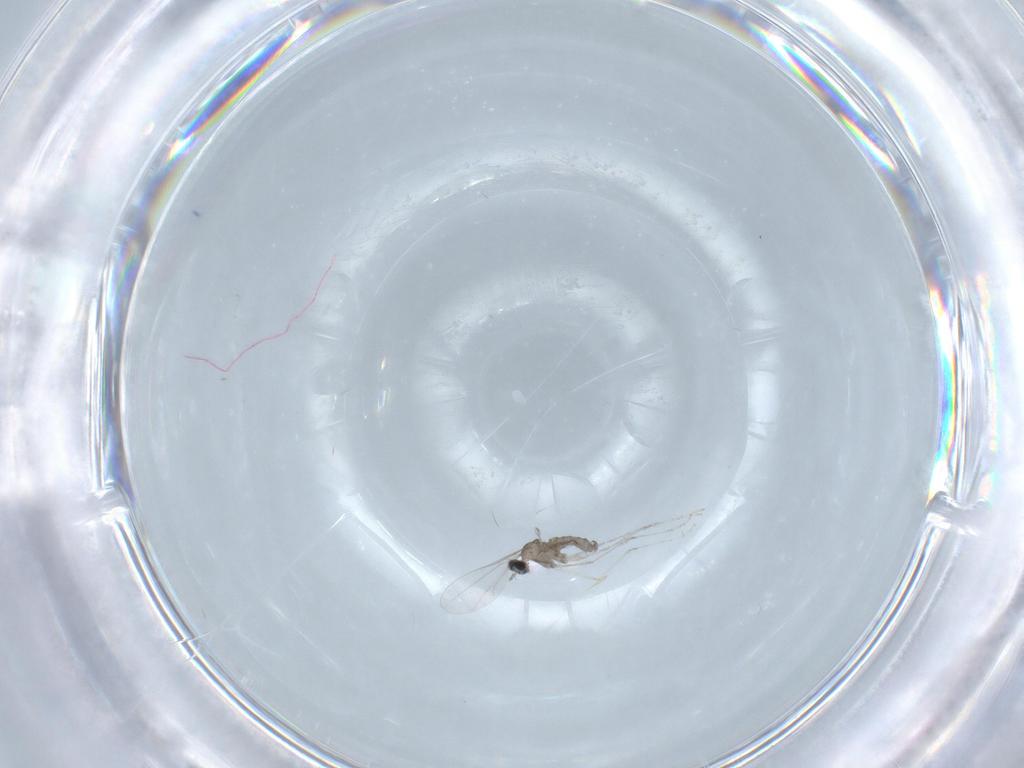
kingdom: Animalia
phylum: Arthropoda
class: Insecta
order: Diptera
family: Cecidomyiidae
